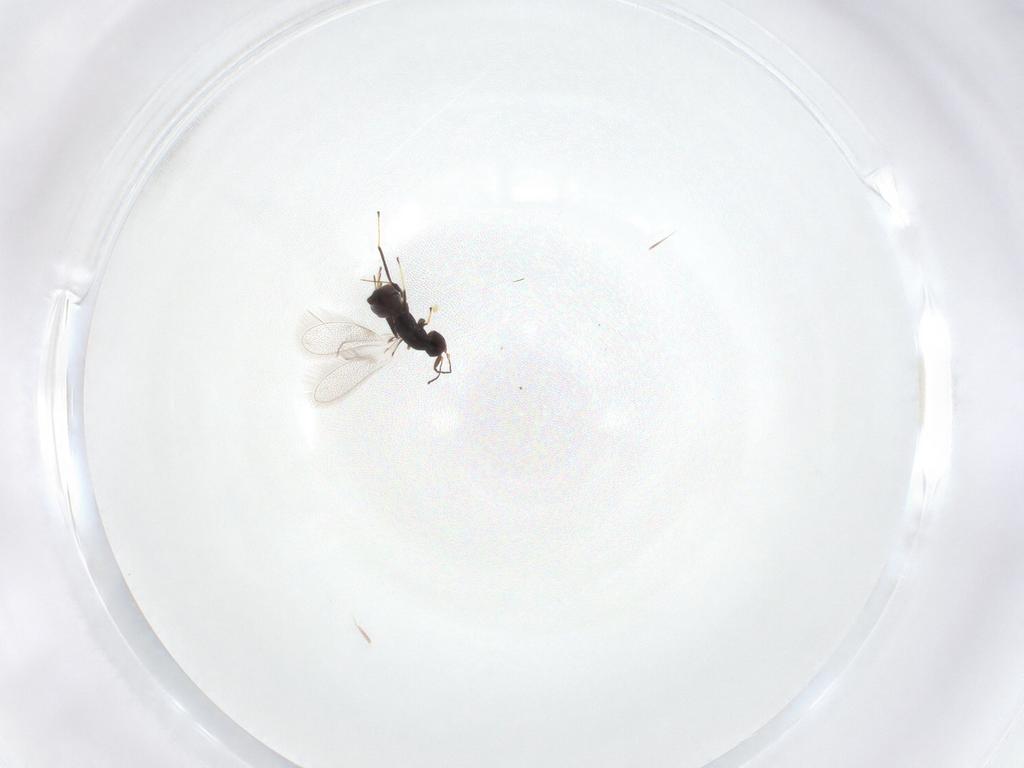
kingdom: Animalia
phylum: Arthropoda
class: Insecta
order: Hymenoptera
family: Mymaridae
